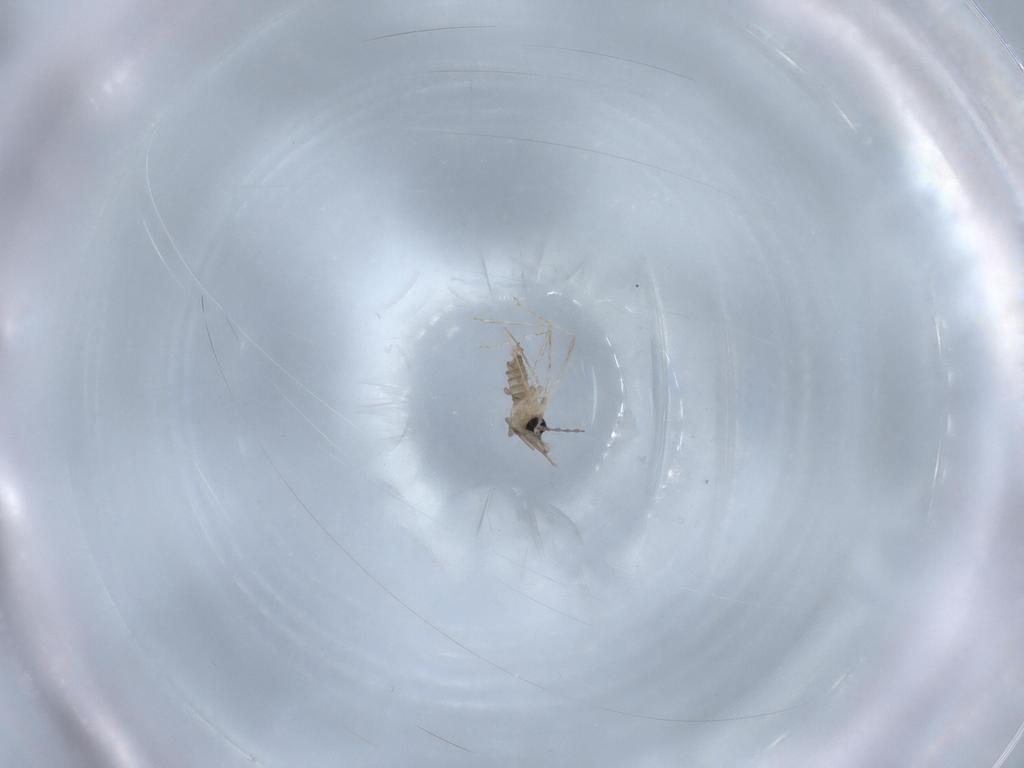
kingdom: Animalia
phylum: Arthropoda
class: Insecta
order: Diptera
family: Cecidomyiidae
